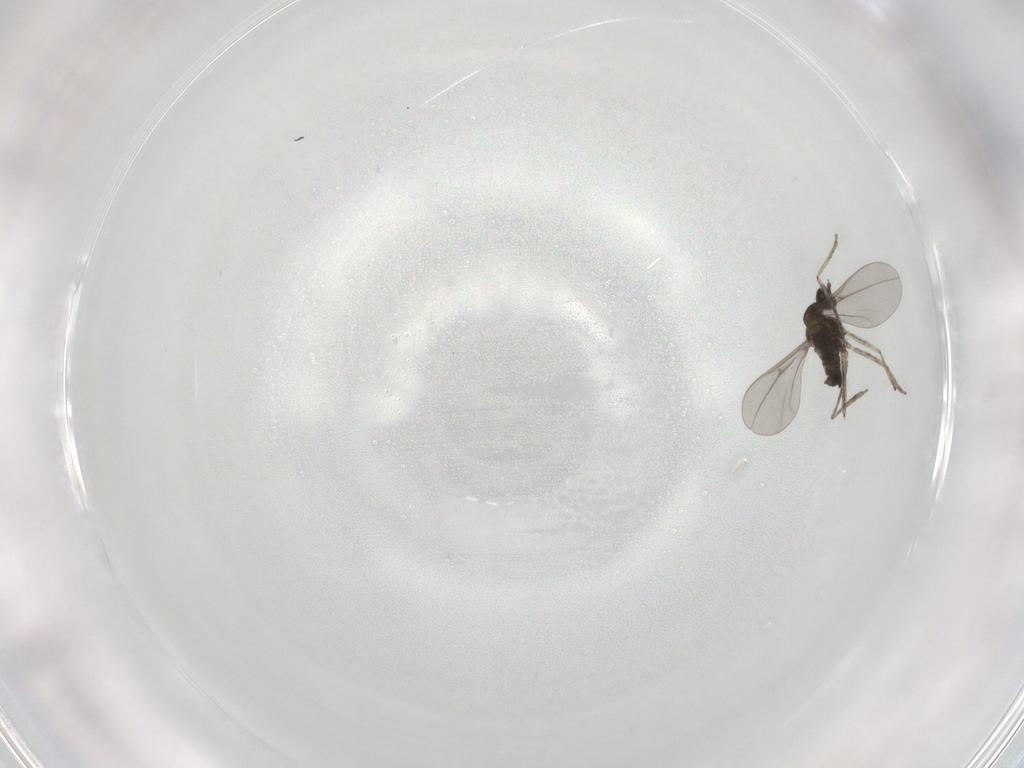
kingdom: Animalia
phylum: Arthropoda
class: Insecta
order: Diptera
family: Cecidomyiidae
